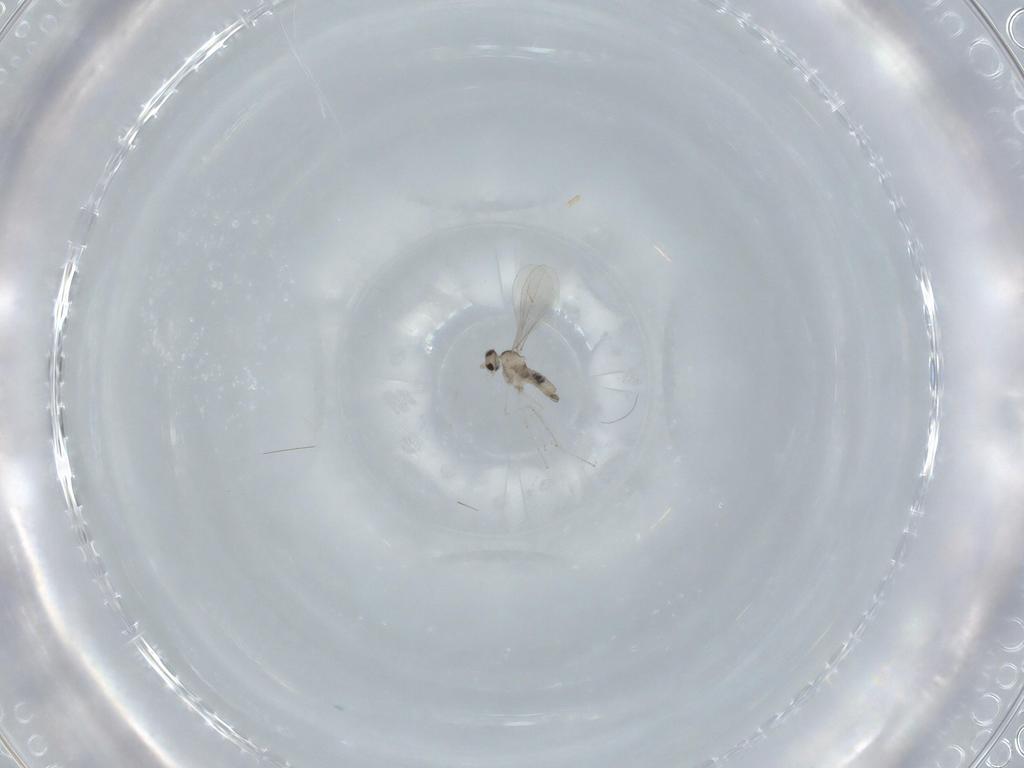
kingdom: Animalia
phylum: Arthropoda
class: Insecta
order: Diptera
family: Cecidomyiidae
